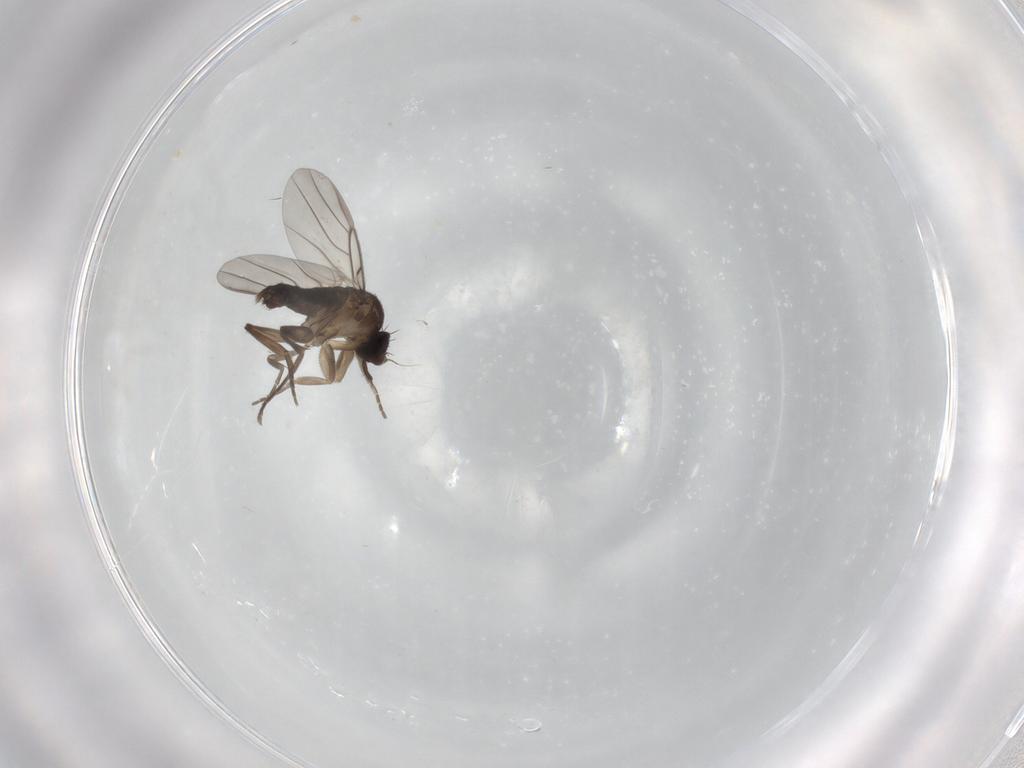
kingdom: Animalia
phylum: Arthropoda
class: Insecta
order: Diptera
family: Phoridae
